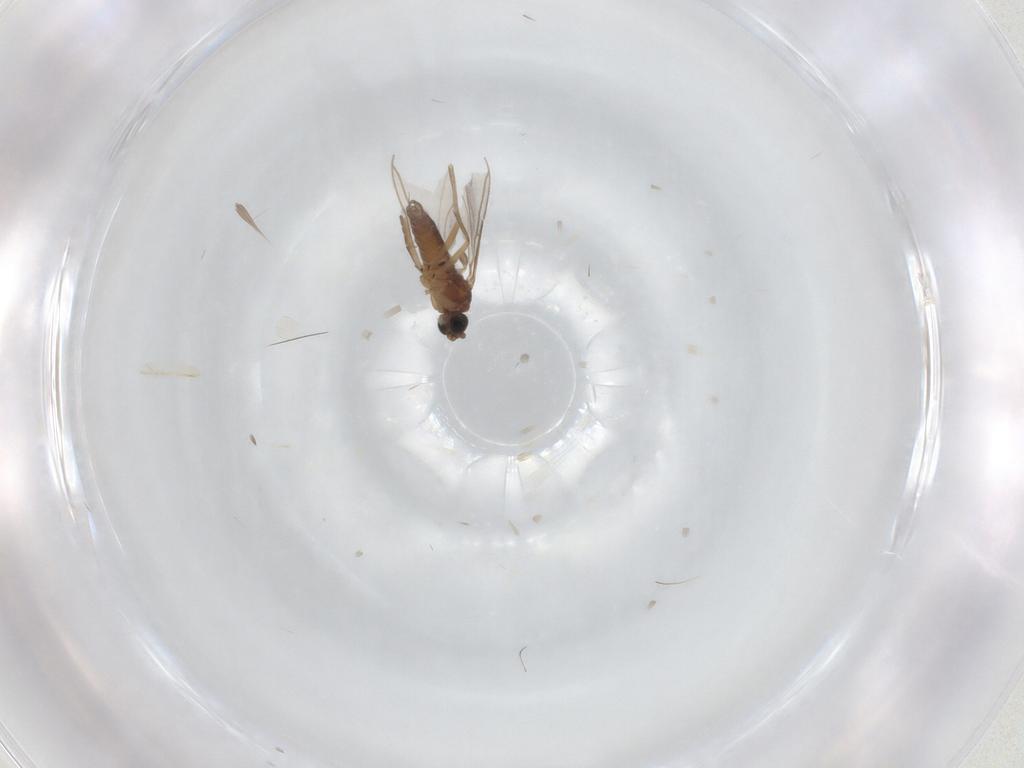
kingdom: Animalia
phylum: Arthropoda
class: Insecta
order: Diptera
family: Sciaridae
